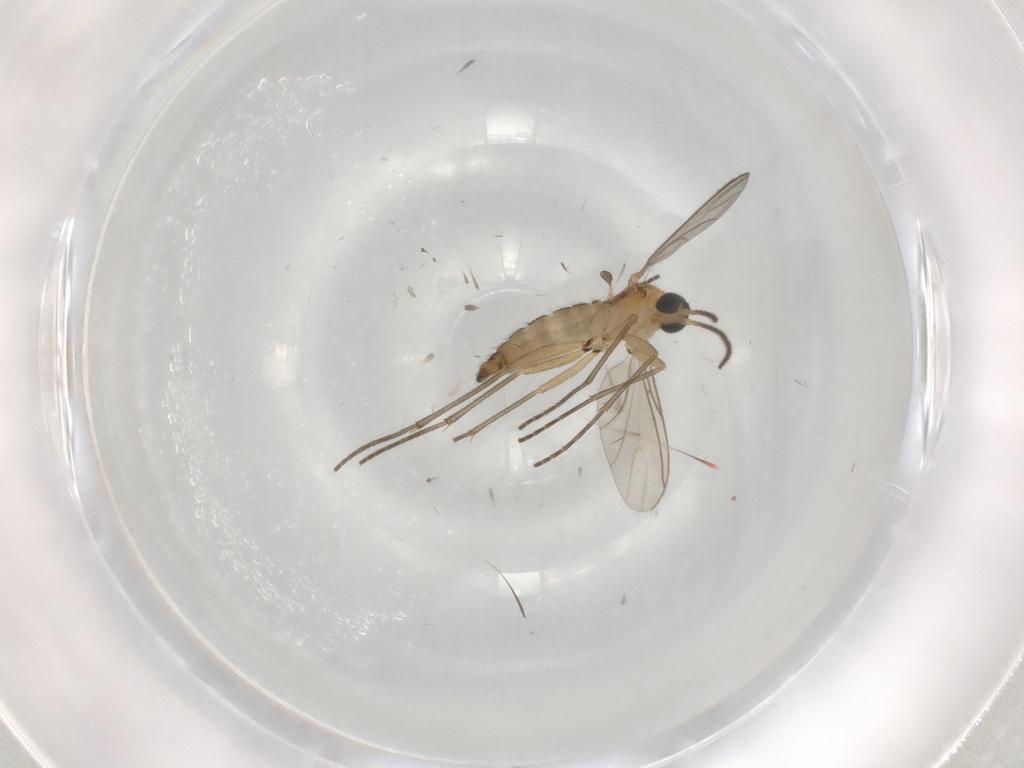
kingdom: Animalia
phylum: Arthropoda
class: Insecta
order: Diptera
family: Cecidomyiidae
